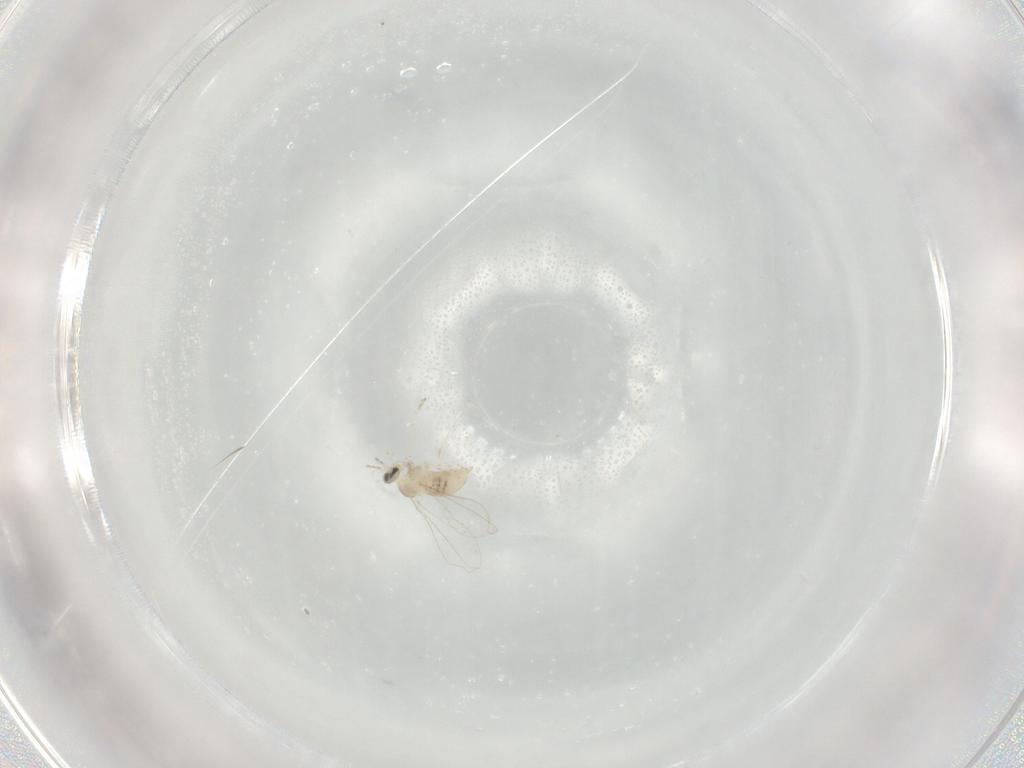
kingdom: Animalia
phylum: Arthropoda
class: Insecta
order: Diptera
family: Cecidomyiidae
